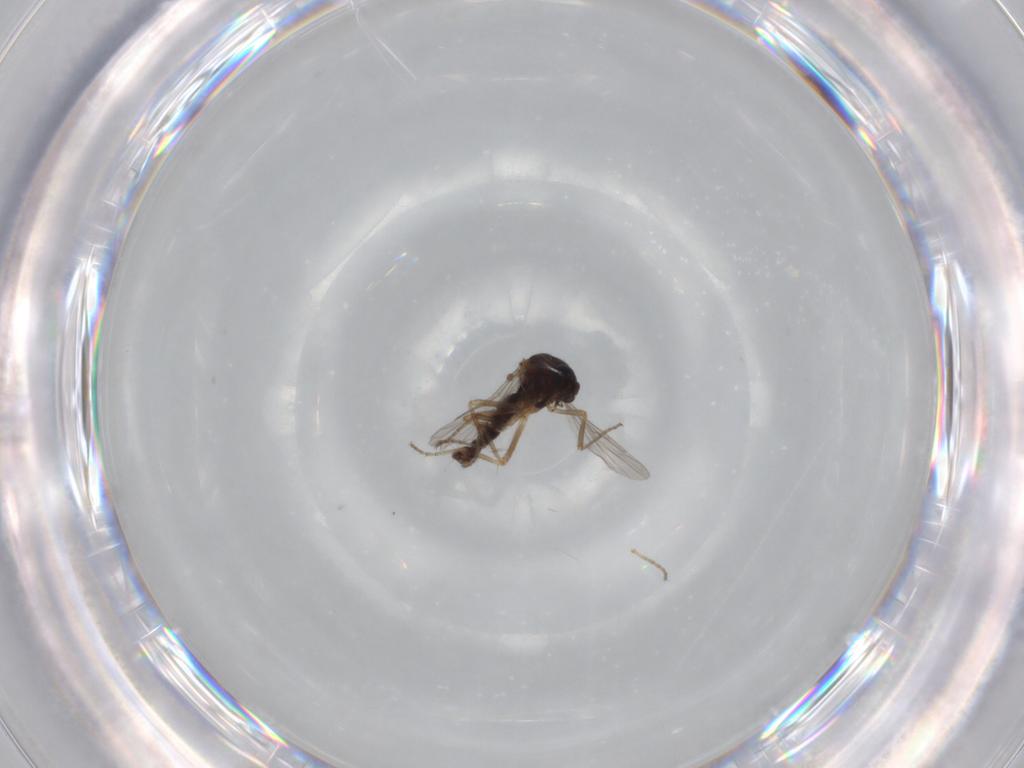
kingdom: Animalia
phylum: Arthropoda
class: Insecta
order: Diptera
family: Ceratopogonidae
